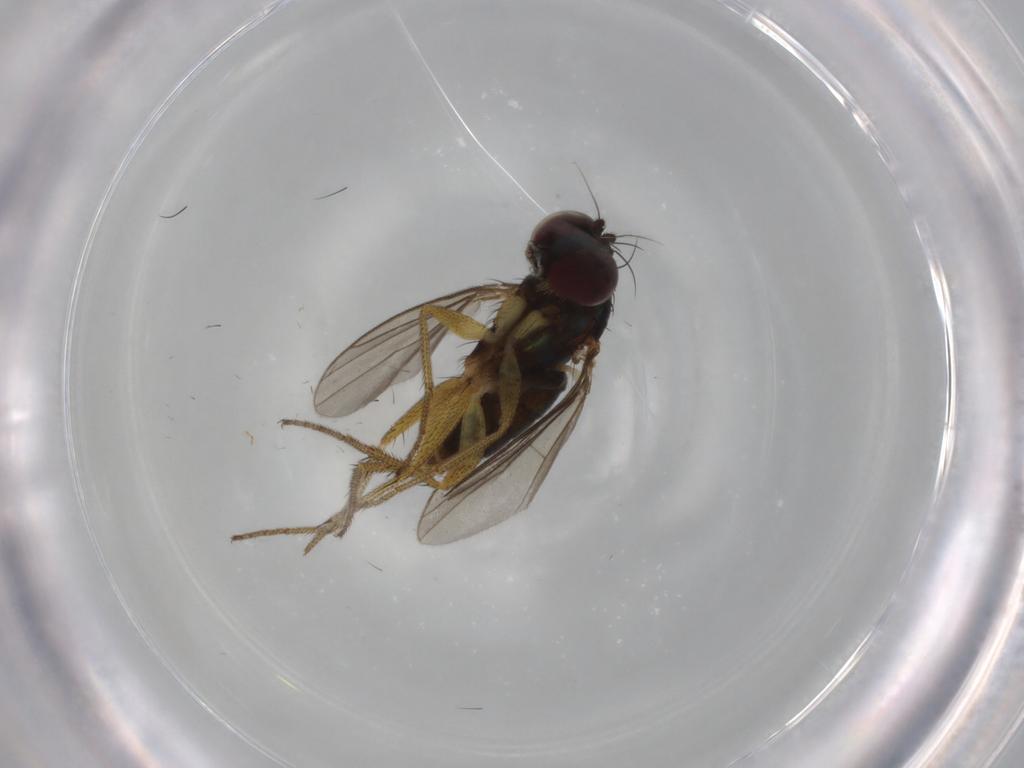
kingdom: Animalia
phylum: Arthropoda
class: Insecta
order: Diptera
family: Dolichopodidae
